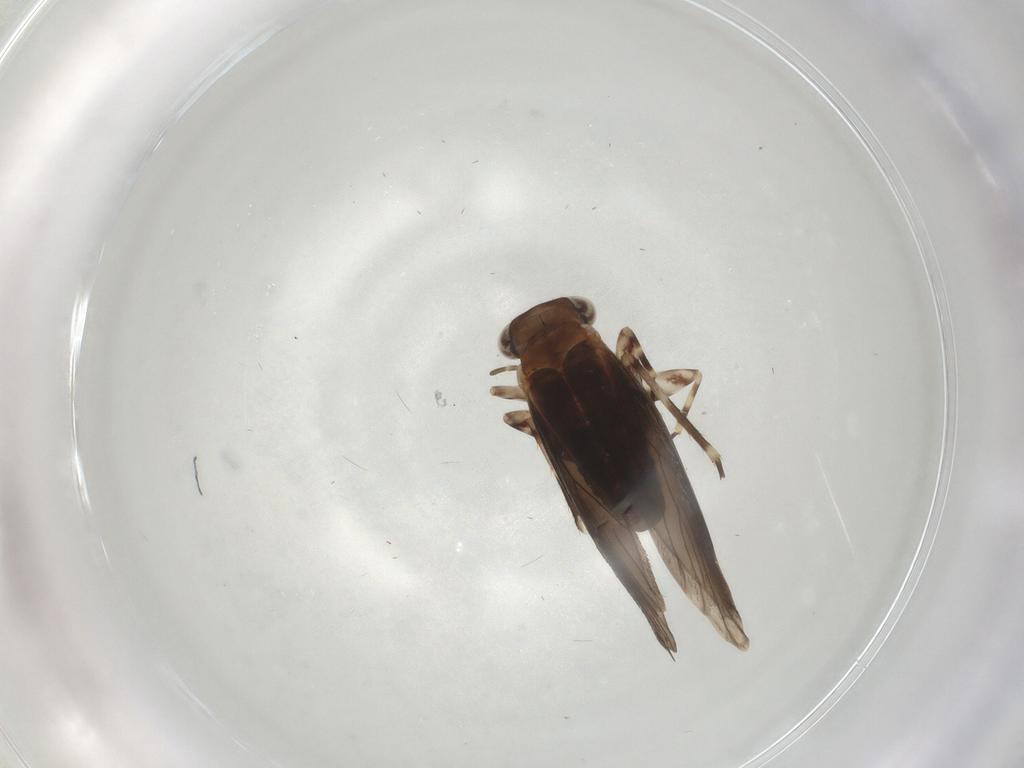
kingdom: Animalia
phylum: Arthropoda
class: Insecta
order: Psocodea
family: Amphientomidae
